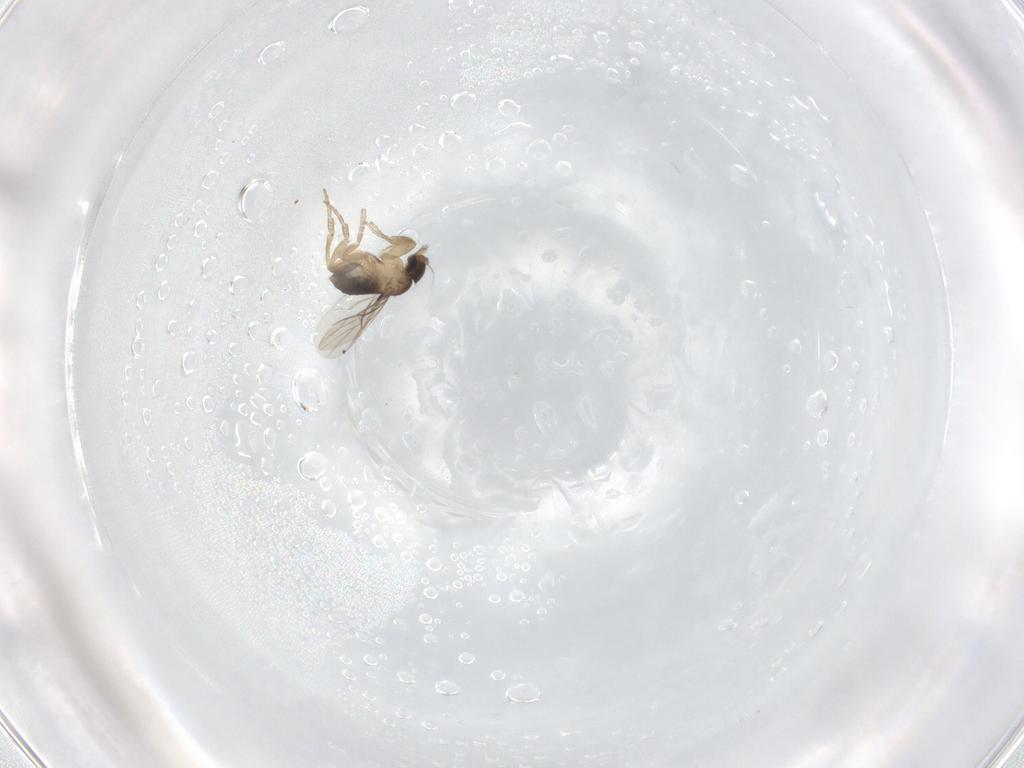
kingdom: Animalia
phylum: Arthropoda
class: Insecta
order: Diptera
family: Phoridae
